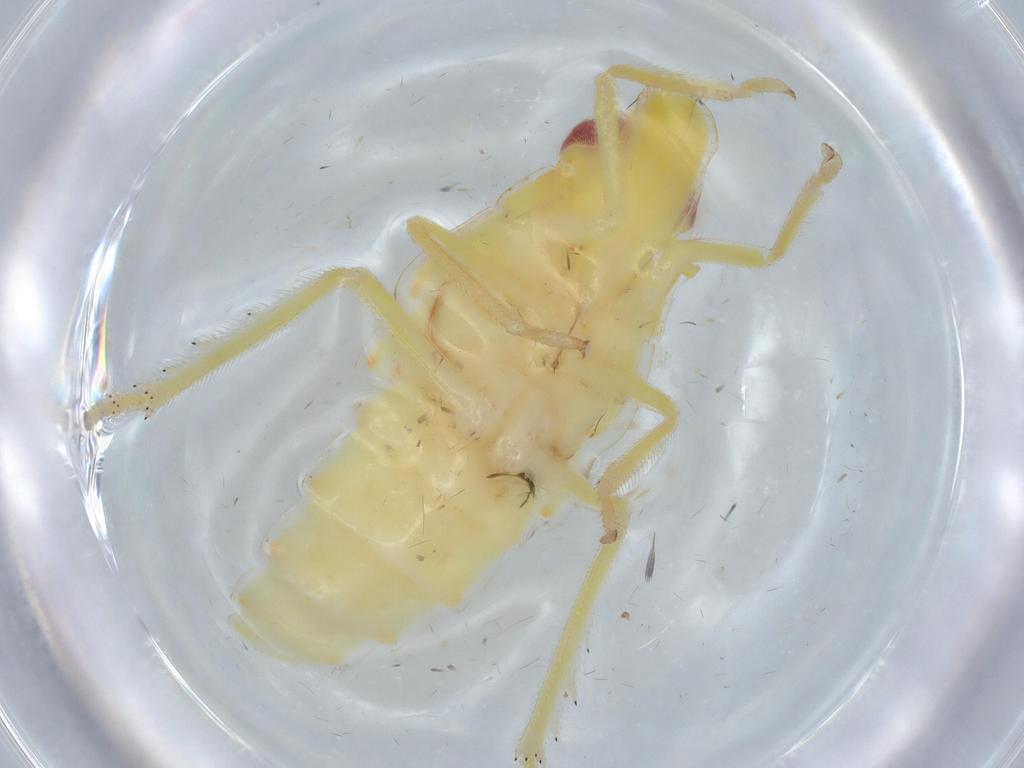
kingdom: Animalia
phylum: Arthropoda
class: Insecta
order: Hemiptera
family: Tropiduchidae
